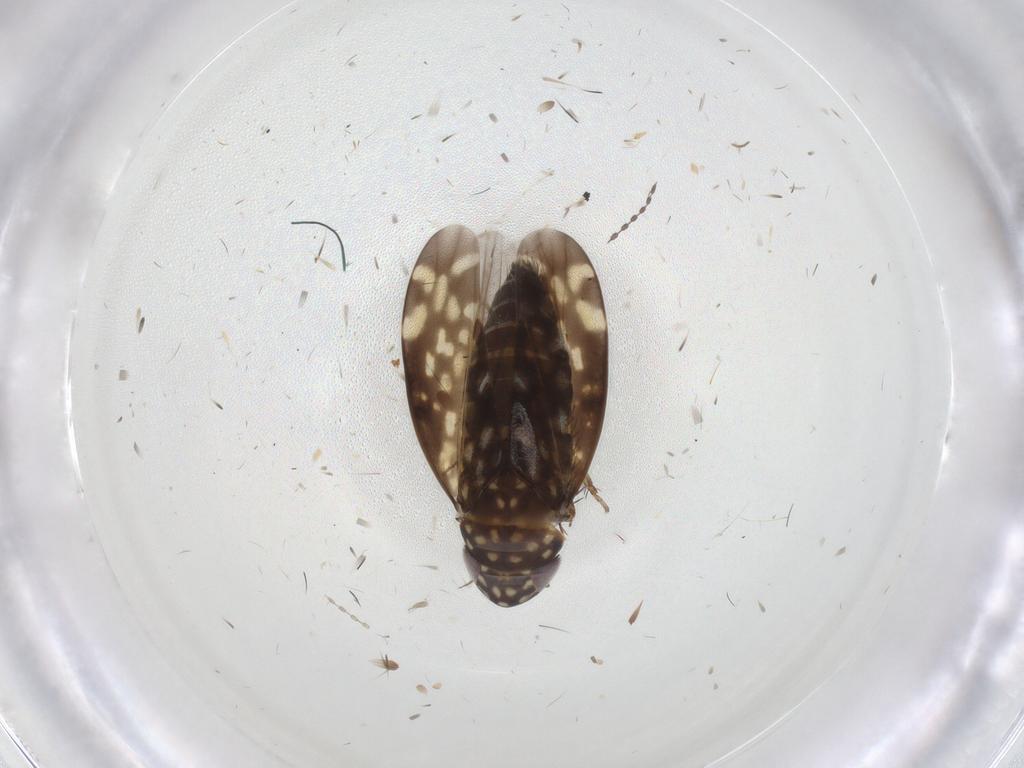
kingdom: Animalia
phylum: Arthropoda
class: Insecta
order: Hemiptera
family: Cicadellidae
